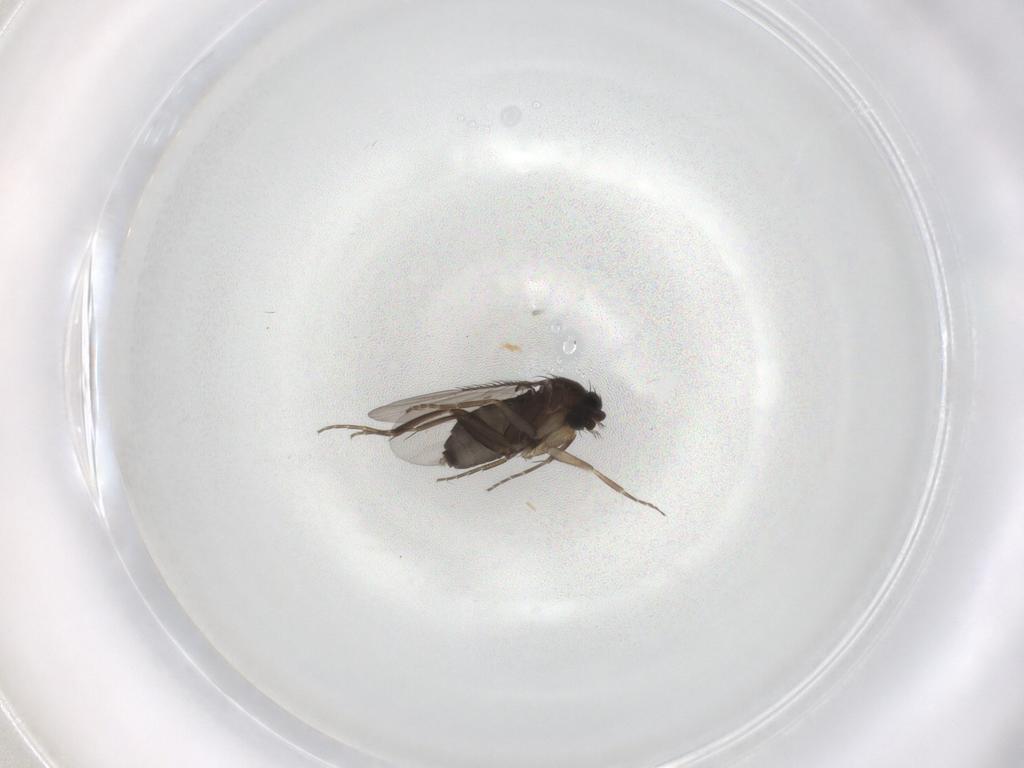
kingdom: Animalia
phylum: Arthropoda
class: Insecta
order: Diptera
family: Phoridae
